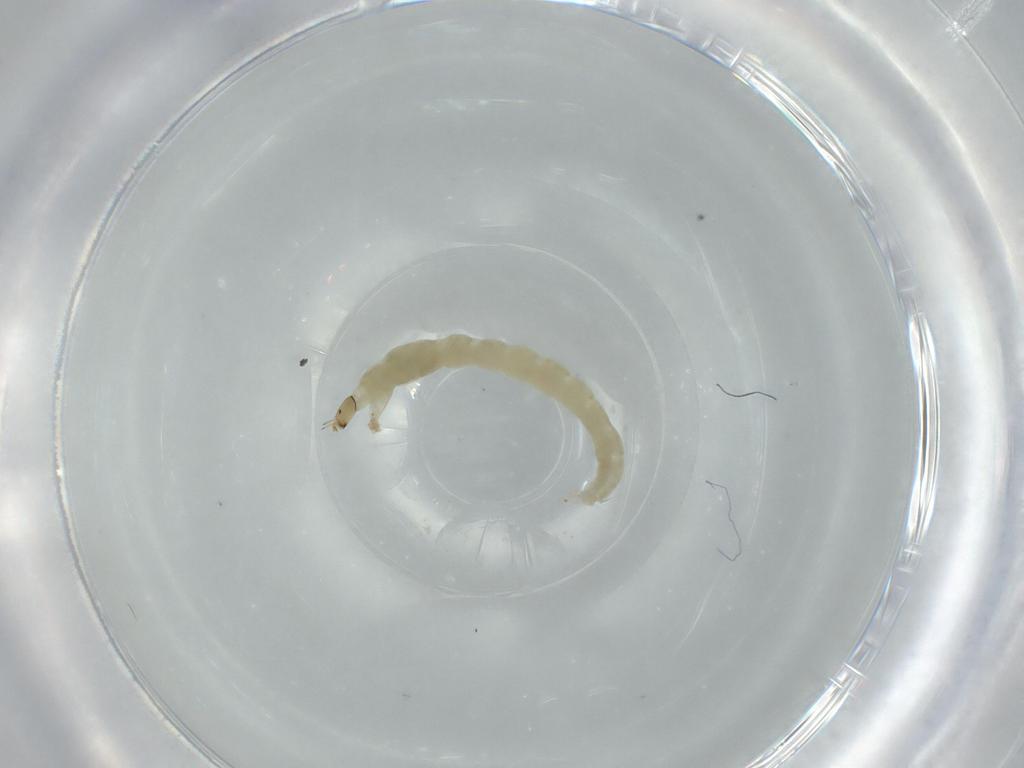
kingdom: Animalia
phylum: Arthropoda
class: Insecta
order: Diptera
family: Chironomidae
